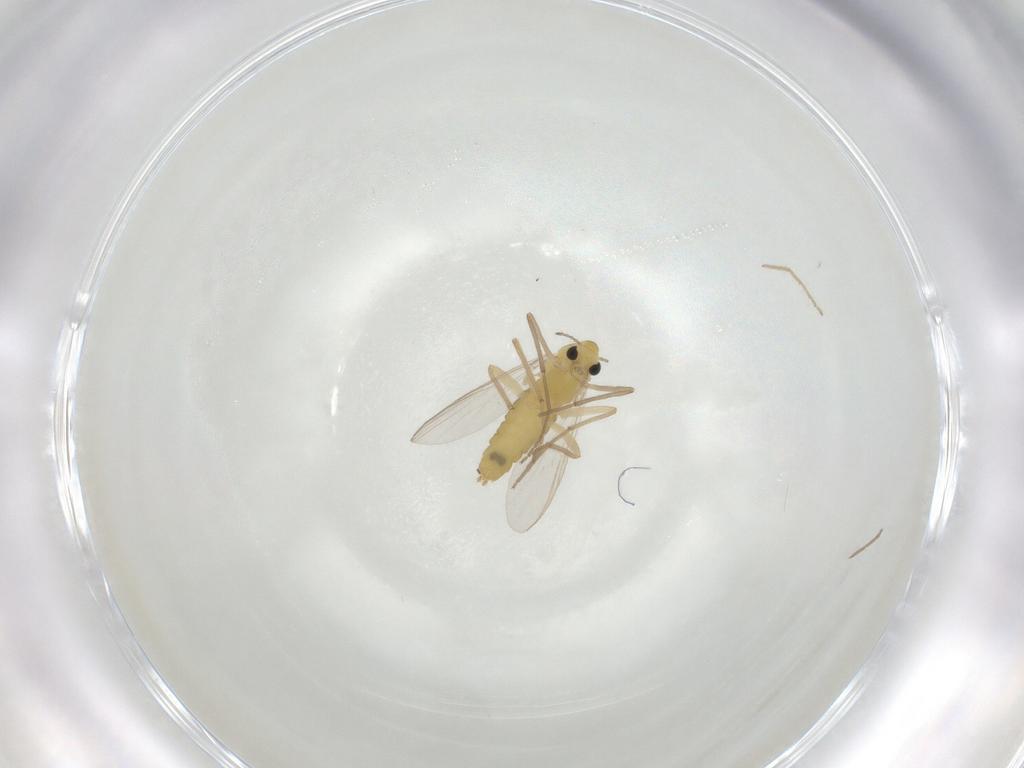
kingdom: Animalia
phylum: Arthropoda
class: Insecta
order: Diptera
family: Chironomidae
